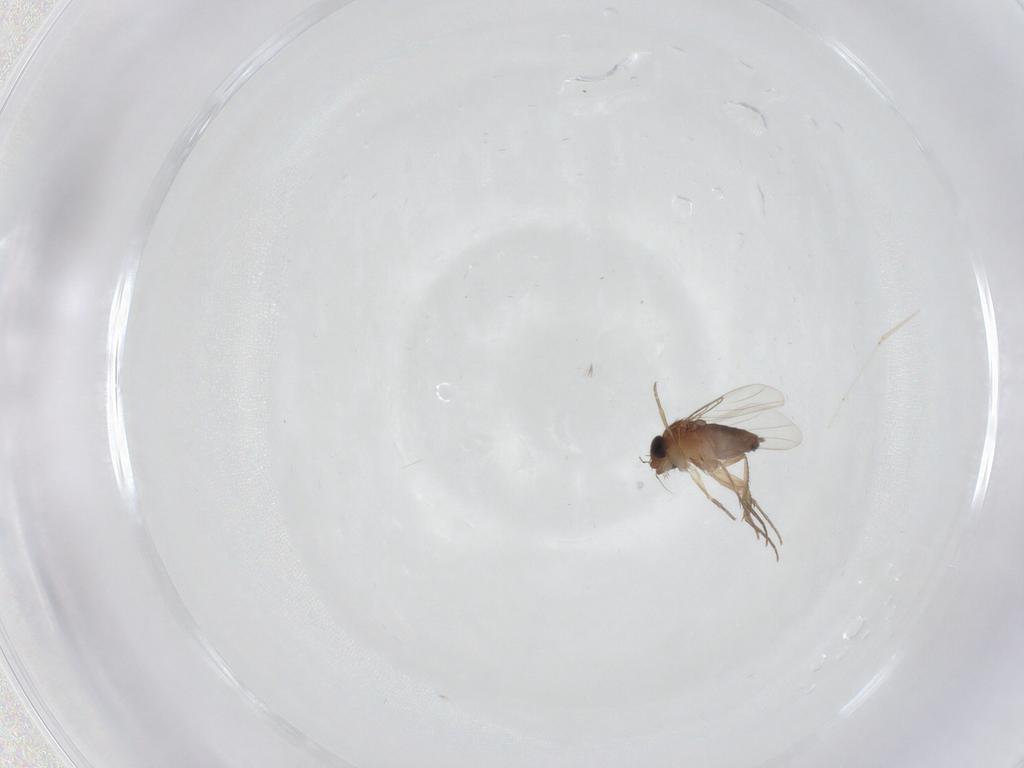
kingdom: Animalia
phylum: Arthropoda
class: Insecta
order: Diptera
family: Phoridae
